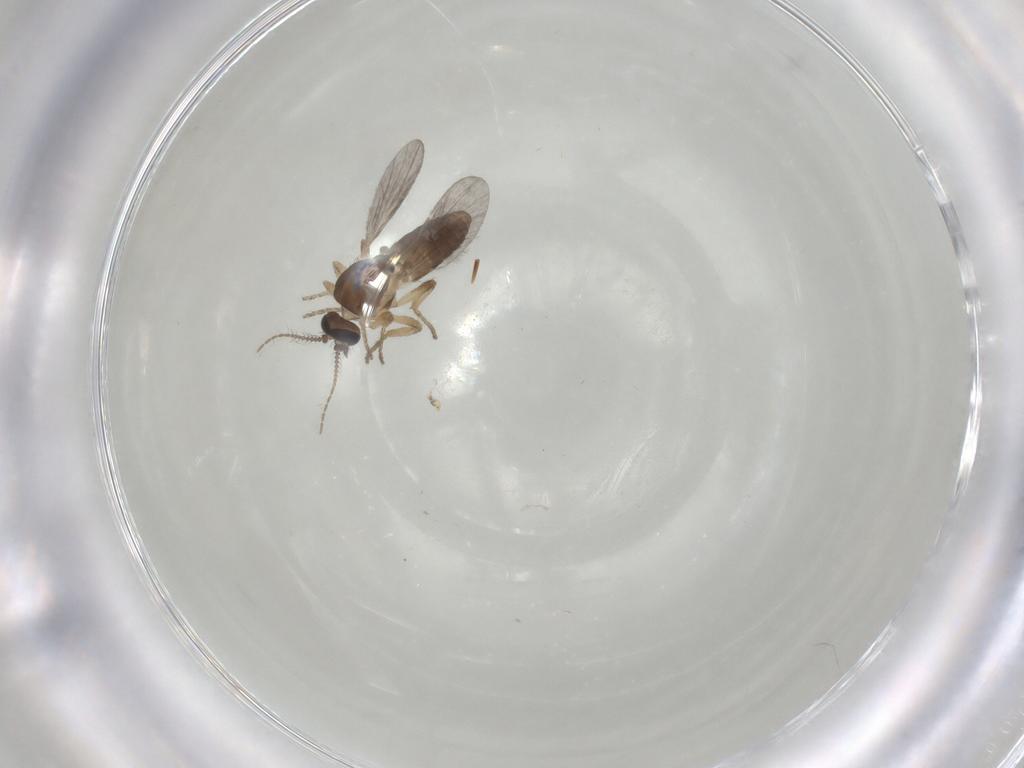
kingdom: Animalia
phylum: Arthropoda
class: Insecta
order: Diptera
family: Ceratopogonidae
